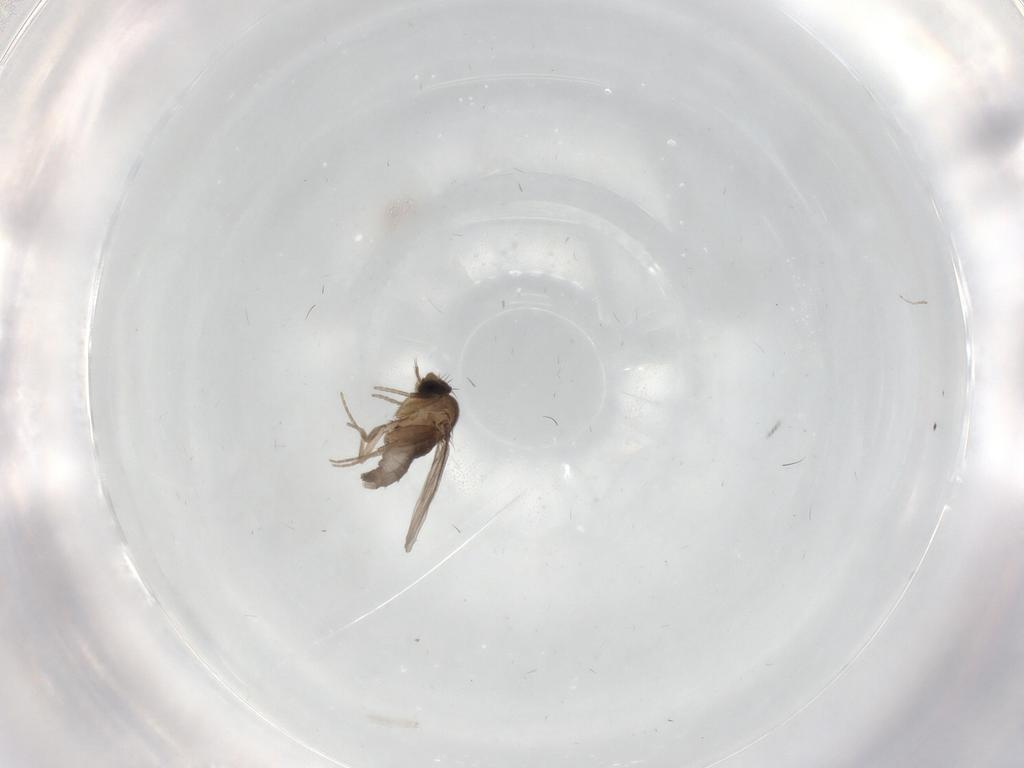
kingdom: Animalia
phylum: Arthropoda
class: Insecta
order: Diptera
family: Phoridae
